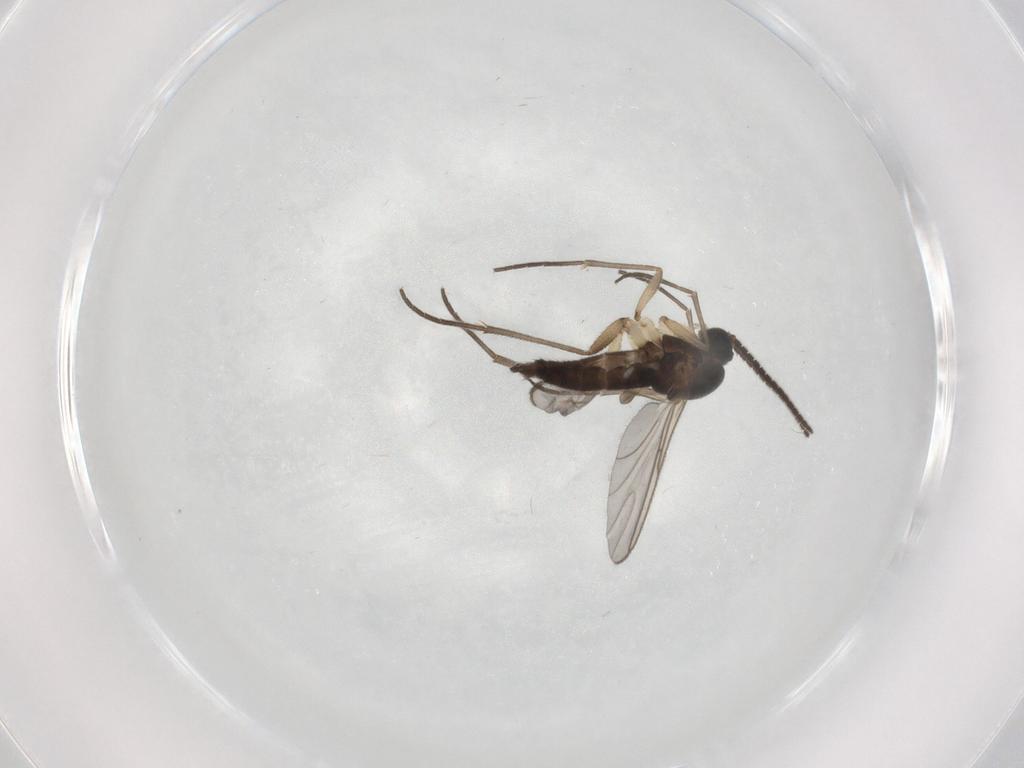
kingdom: Animalia
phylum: Arthropoda
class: Insecta
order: Diptera
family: Sciaridae
